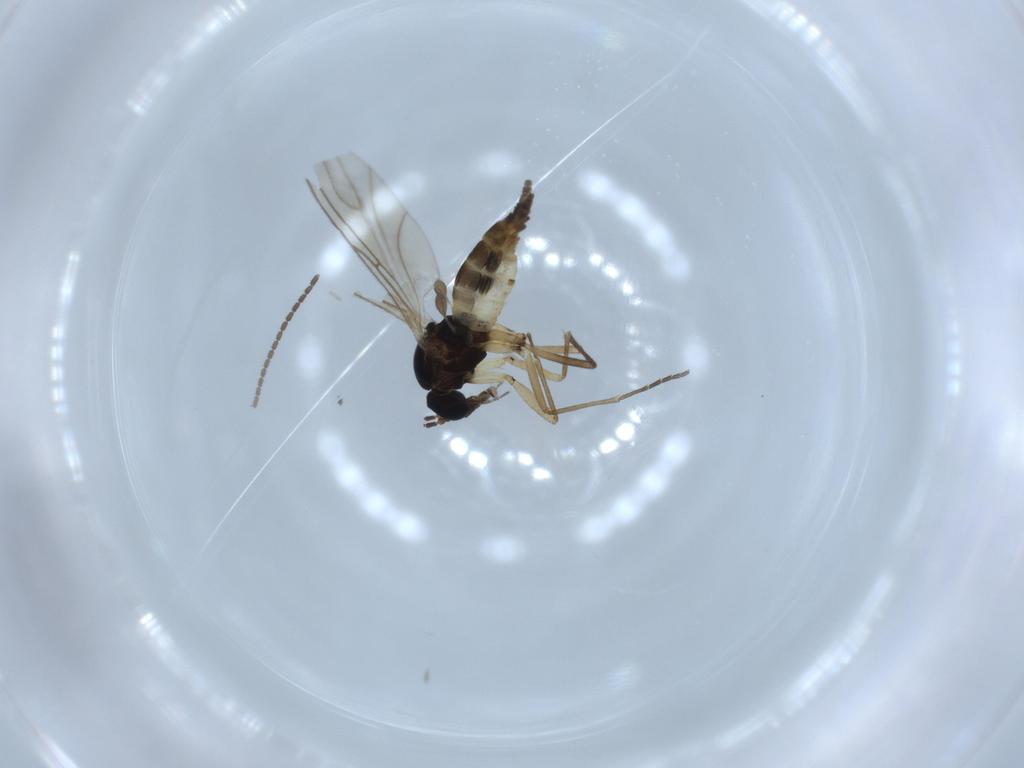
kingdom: Animalia
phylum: Arthropoda
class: Insecta
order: Diptera
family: Sciaridae
